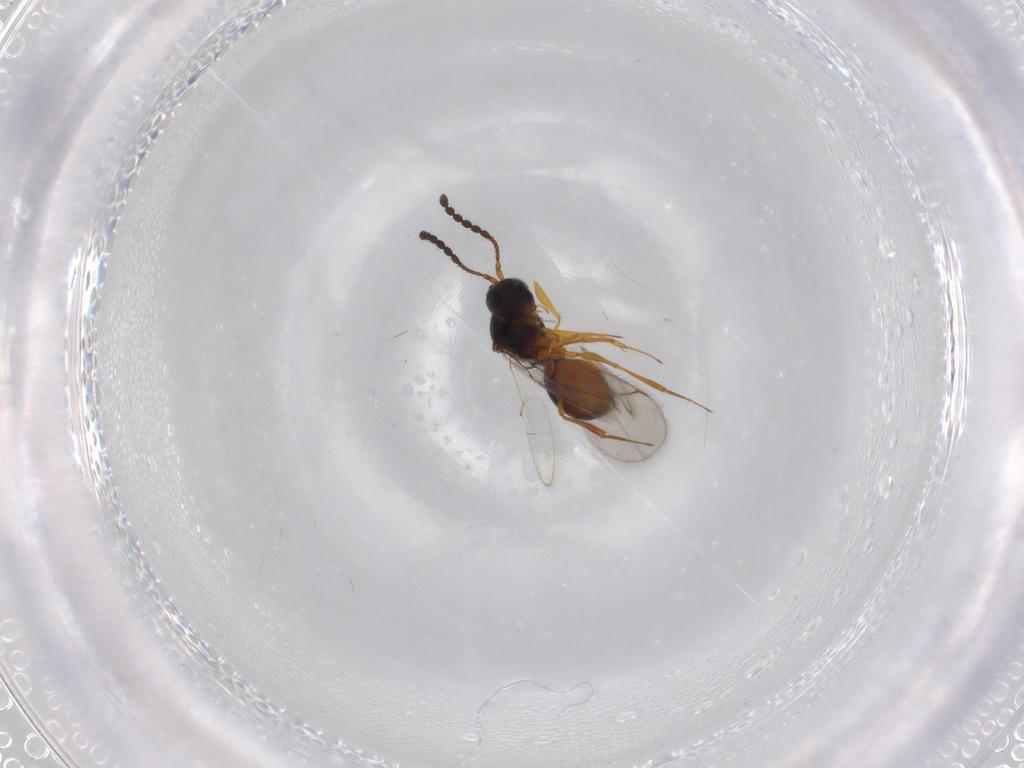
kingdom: Animalia
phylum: Arthropoda
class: Insecta
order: Hymenoptera
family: Figitidae
